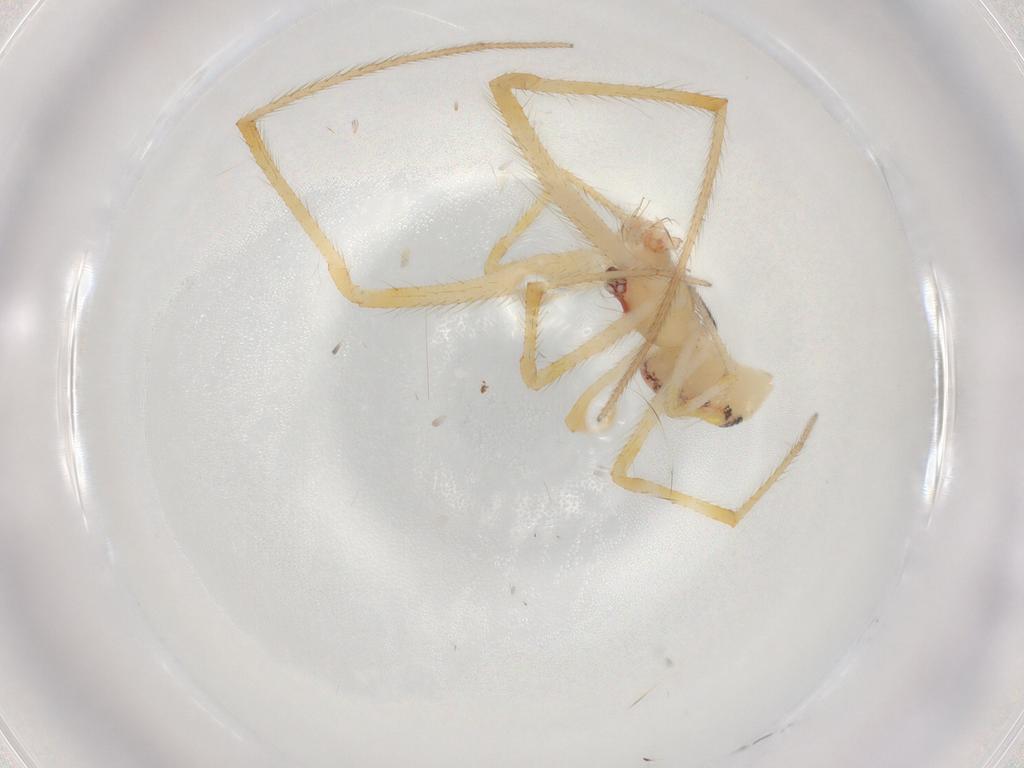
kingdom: Animalia
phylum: Arthropoda
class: Arachnida
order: Araneae
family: Theridiidae
